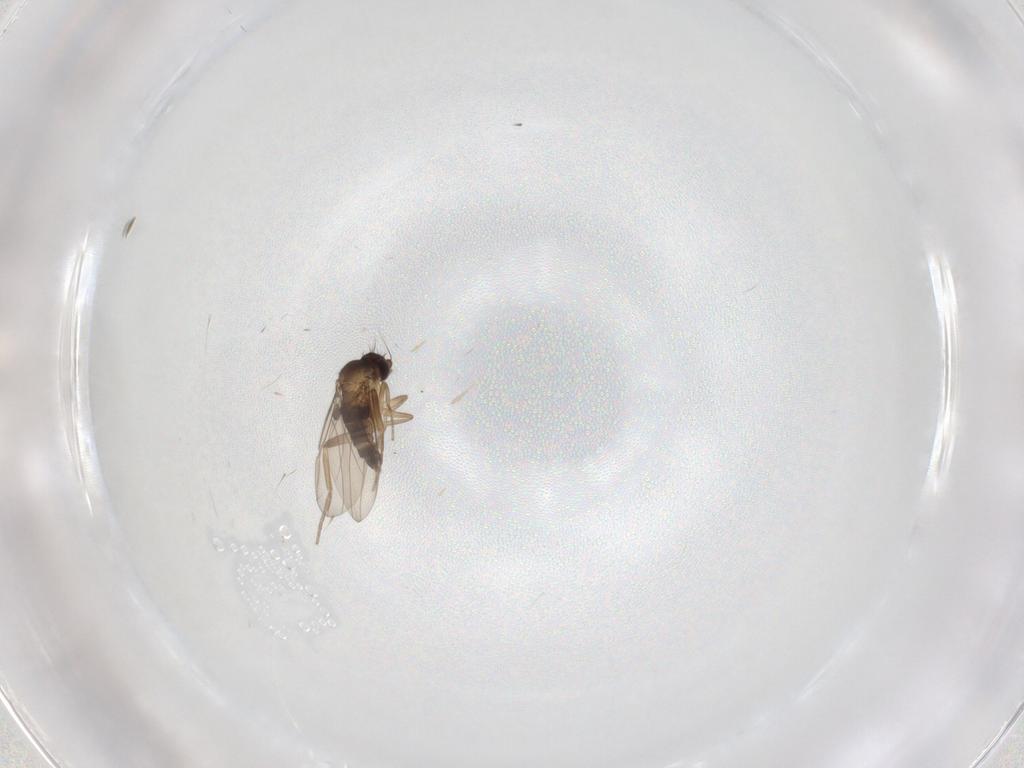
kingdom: Animalia
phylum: Arthropoda
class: Insecta
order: Diptera
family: Phoridae
